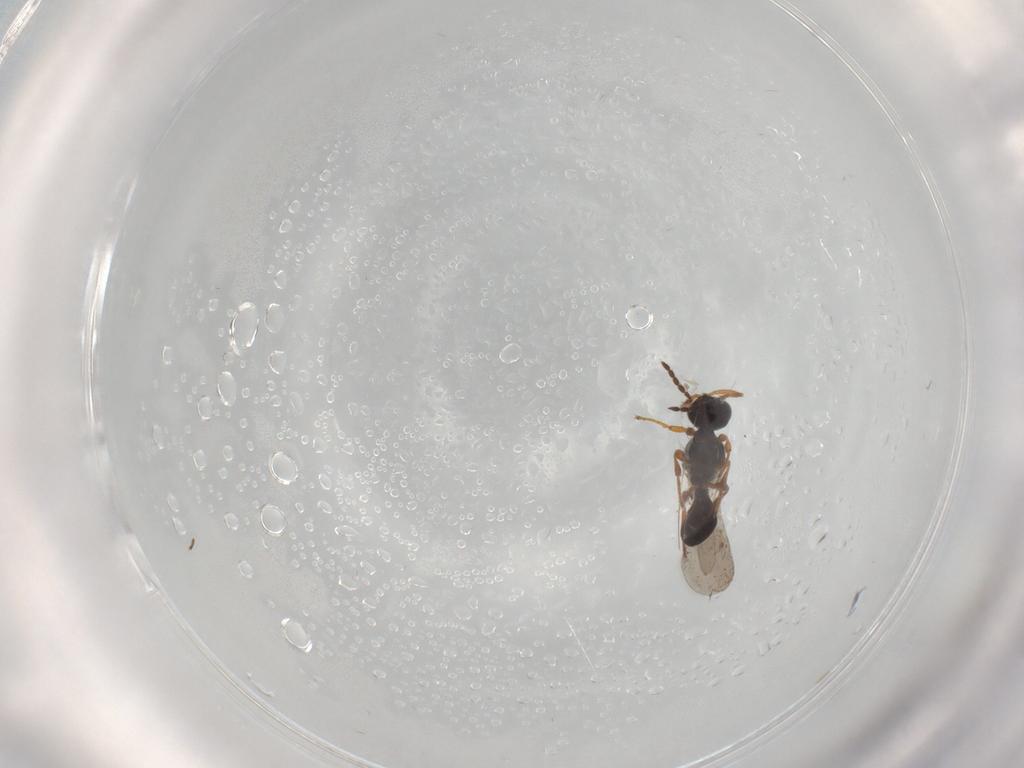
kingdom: Animalia
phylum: Arthropoda
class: Insecta
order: Hymenoptera
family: Platygastridae
